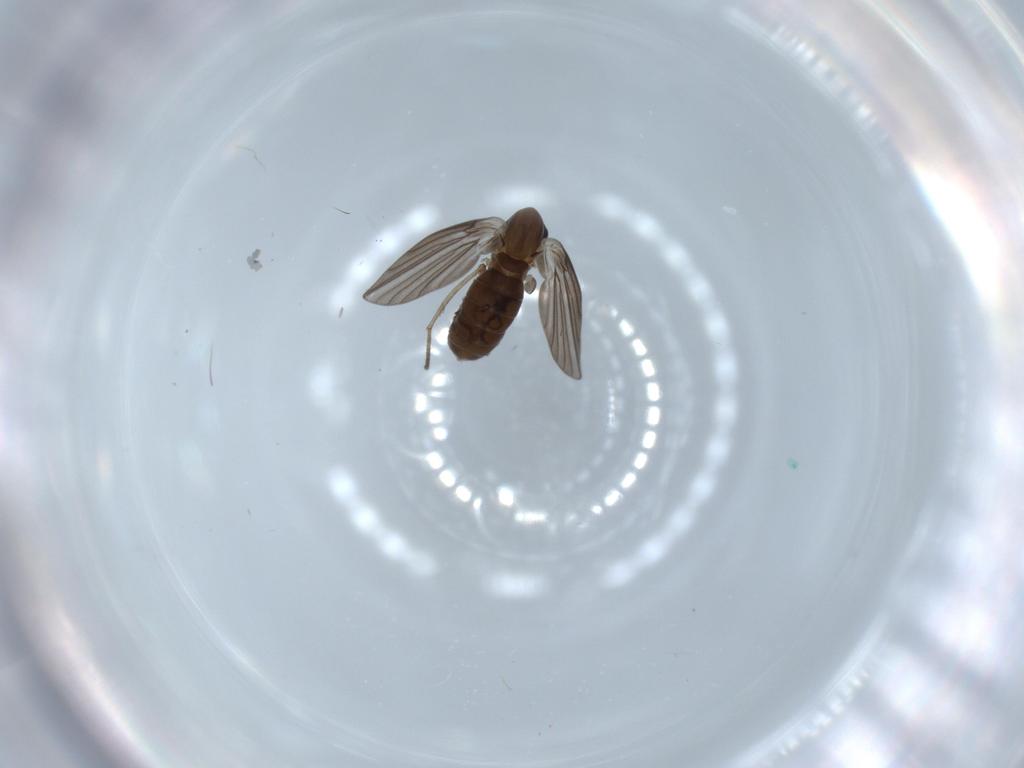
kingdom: Animalia
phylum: Arthropoda
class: Insecta
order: Diptera
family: Psychodidae
